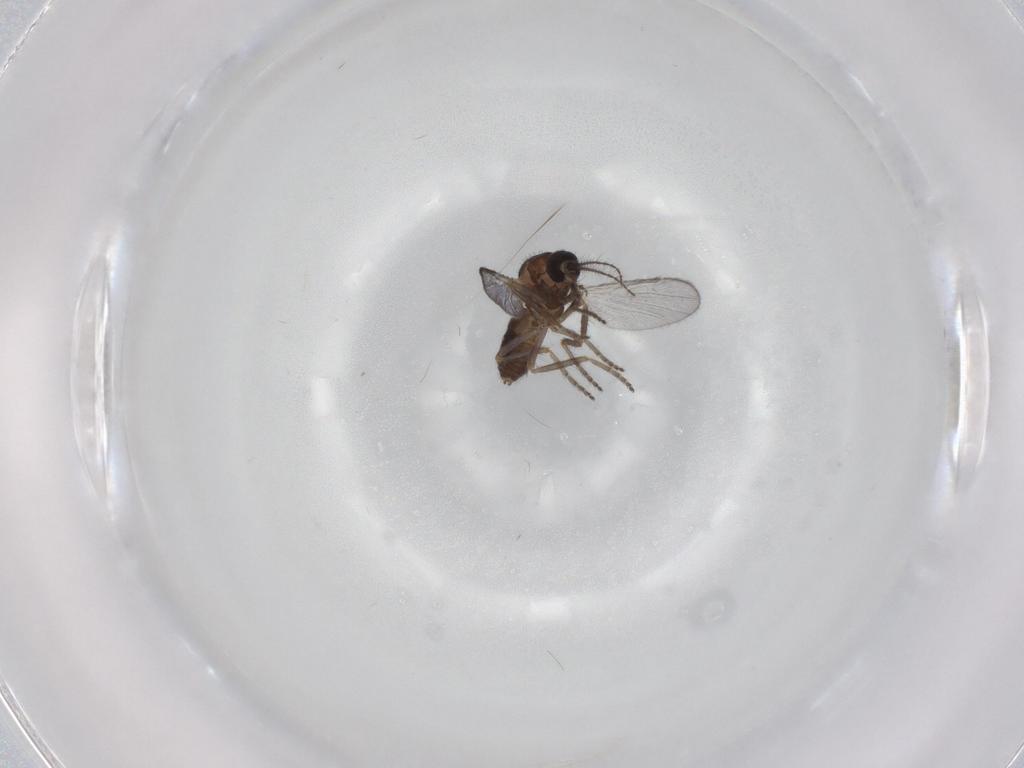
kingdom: Animalia
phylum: Arthropoda
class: Insecta
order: Diptera
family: Ceratopogonidae
